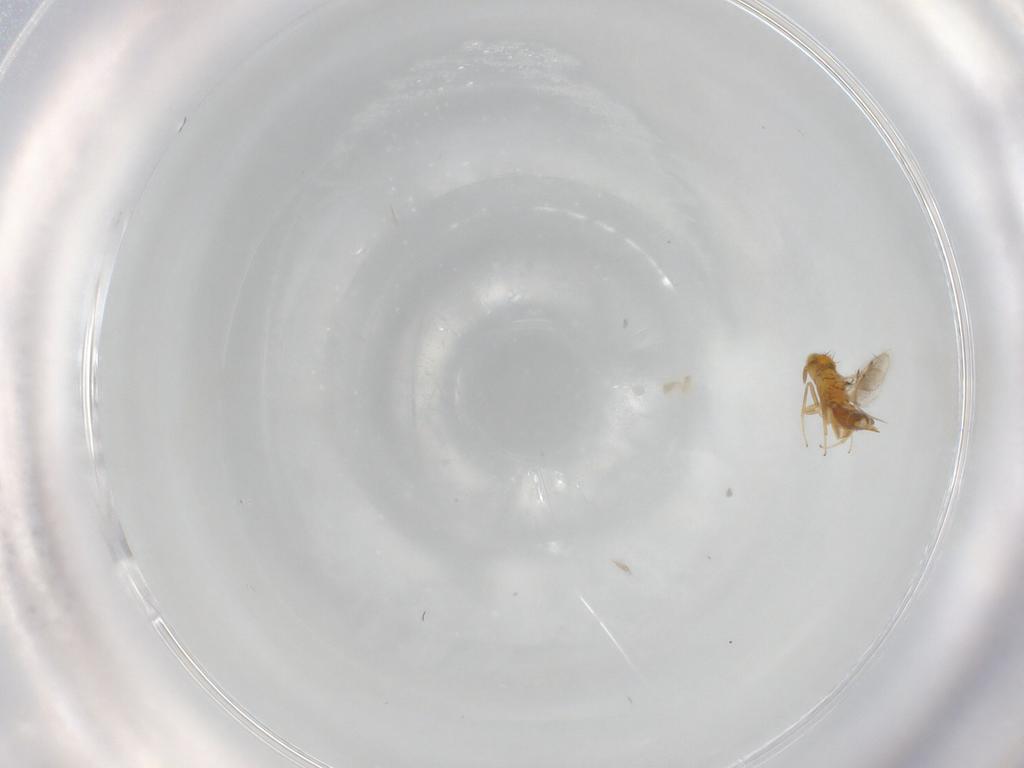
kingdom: Animalia
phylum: Arthropoda
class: Insecta
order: Hymenoptera
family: Aphelinidae
